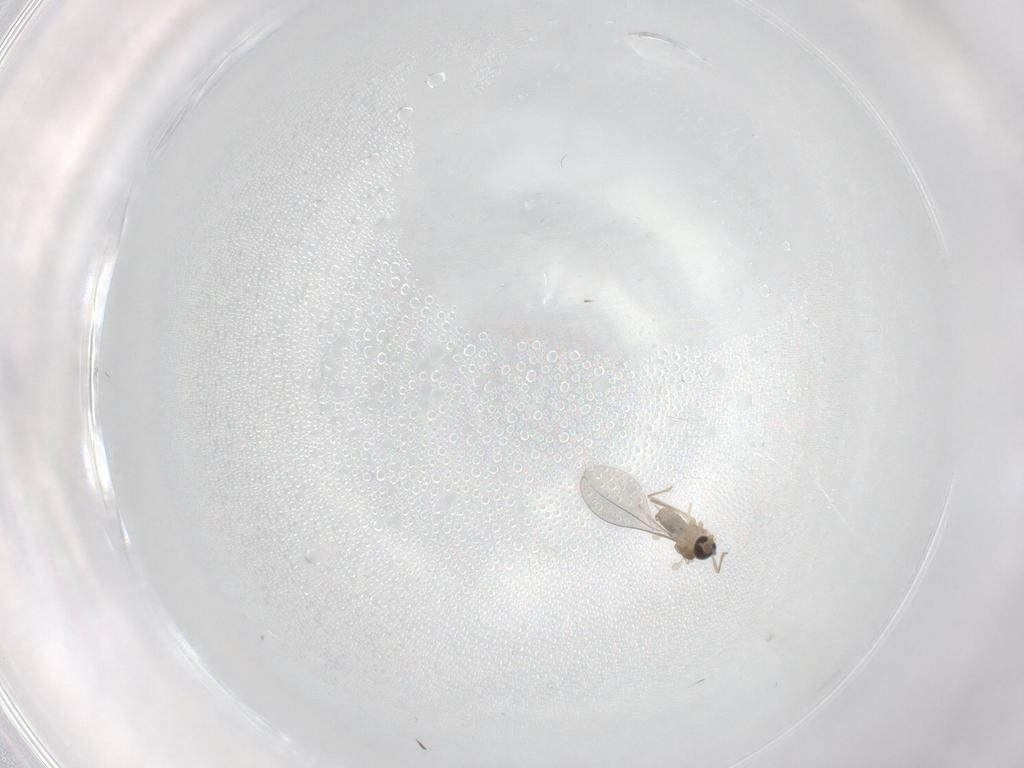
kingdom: Animalia
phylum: Arthropoda
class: Insecta
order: Diptera
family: Cecidomyiidae
